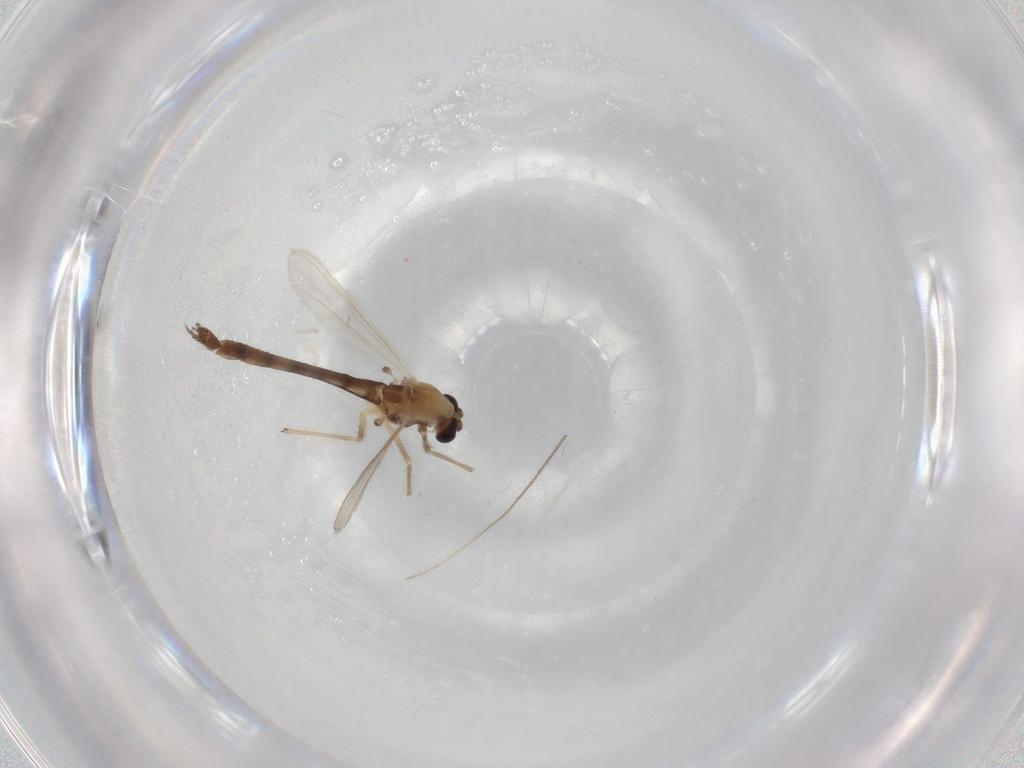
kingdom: Animalia
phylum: Arthropoda
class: Insecta
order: Diptera
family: Chironomidae
